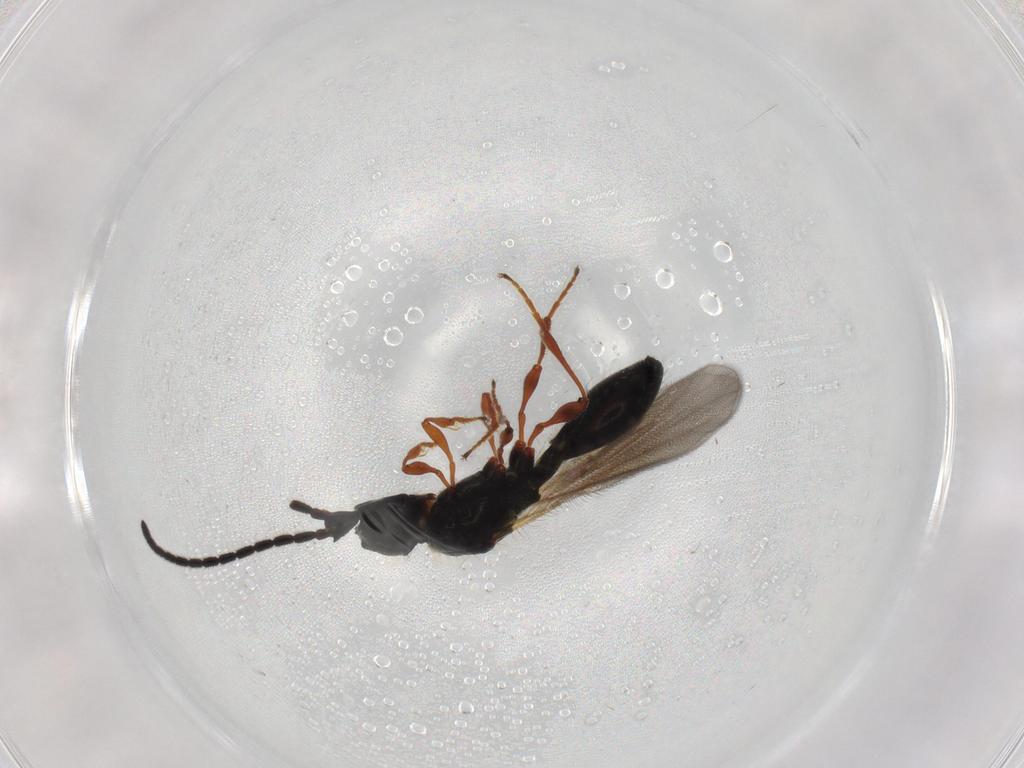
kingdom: Animalia
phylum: Arthropoda
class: Insecta
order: Hymenoptera
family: Diapriidae
